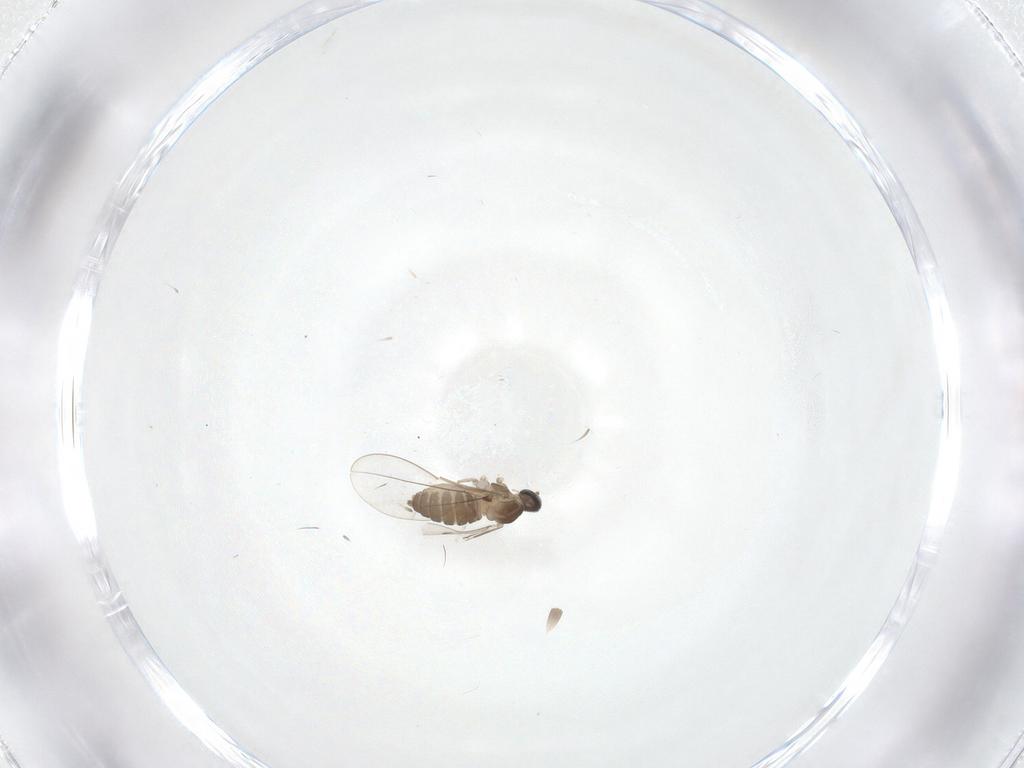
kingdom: Animalia
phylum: Arthropoda
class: Insecta
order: Diptera
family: Cecidomyiidae
